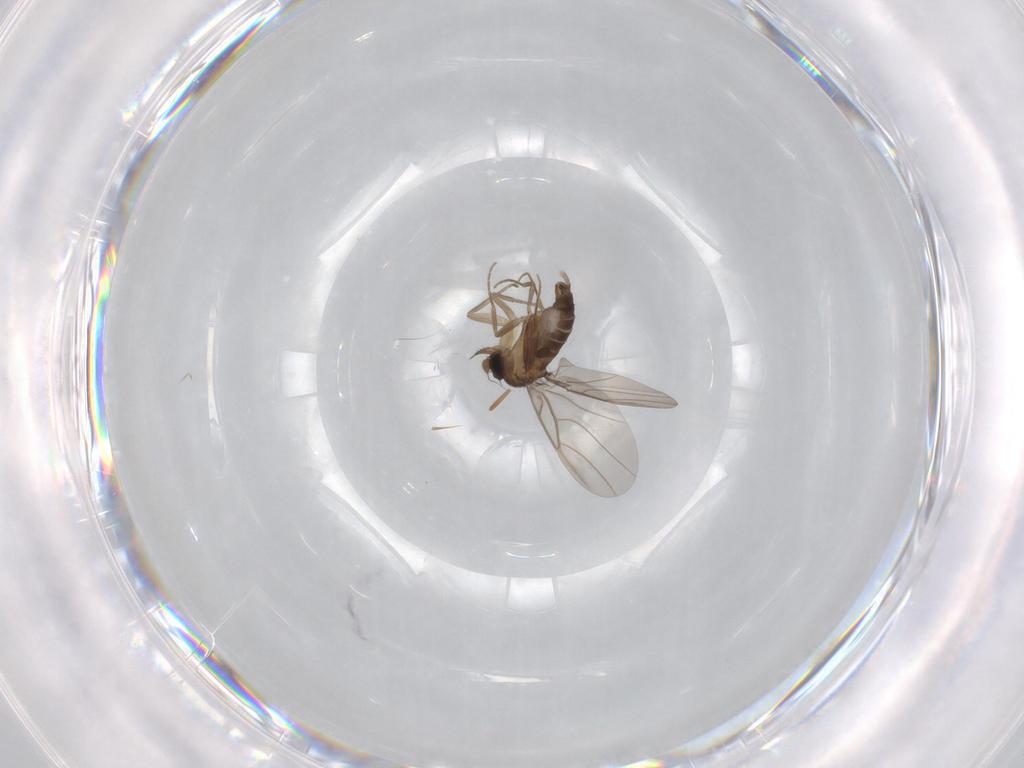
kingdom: Animalia
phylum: Arthropoda
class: Insecta
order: Diptera
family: Phoridae
